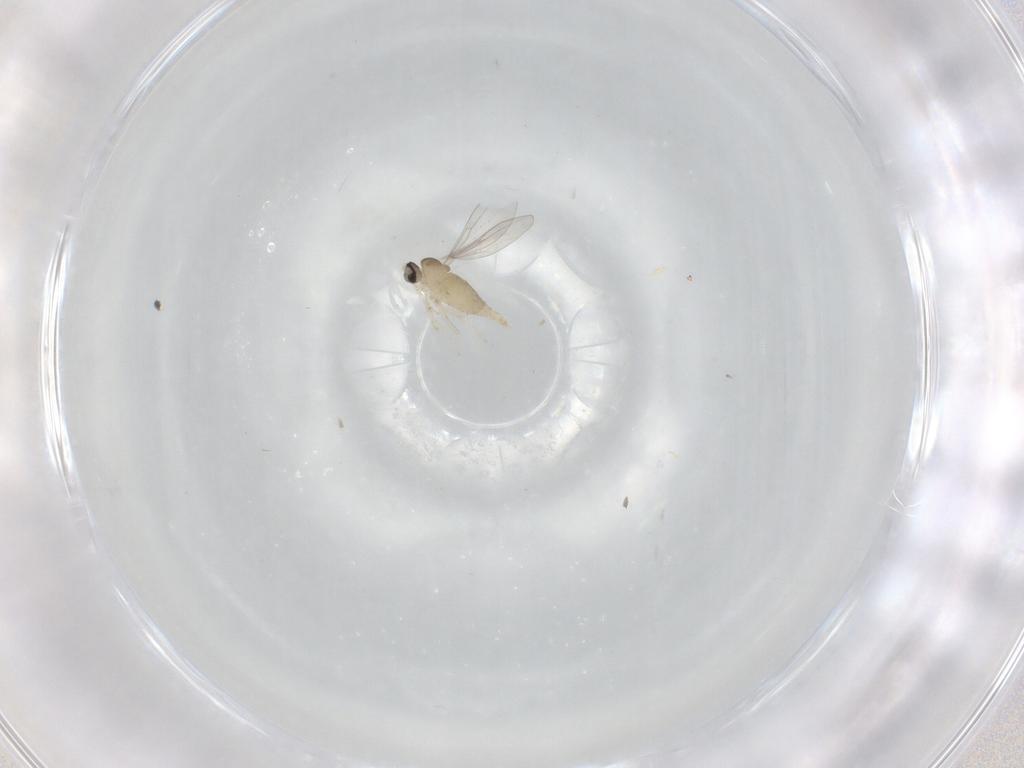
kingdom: Animalia
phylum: Arthropoda
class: Insecta
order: Diptera
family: Cecidomyiidae
